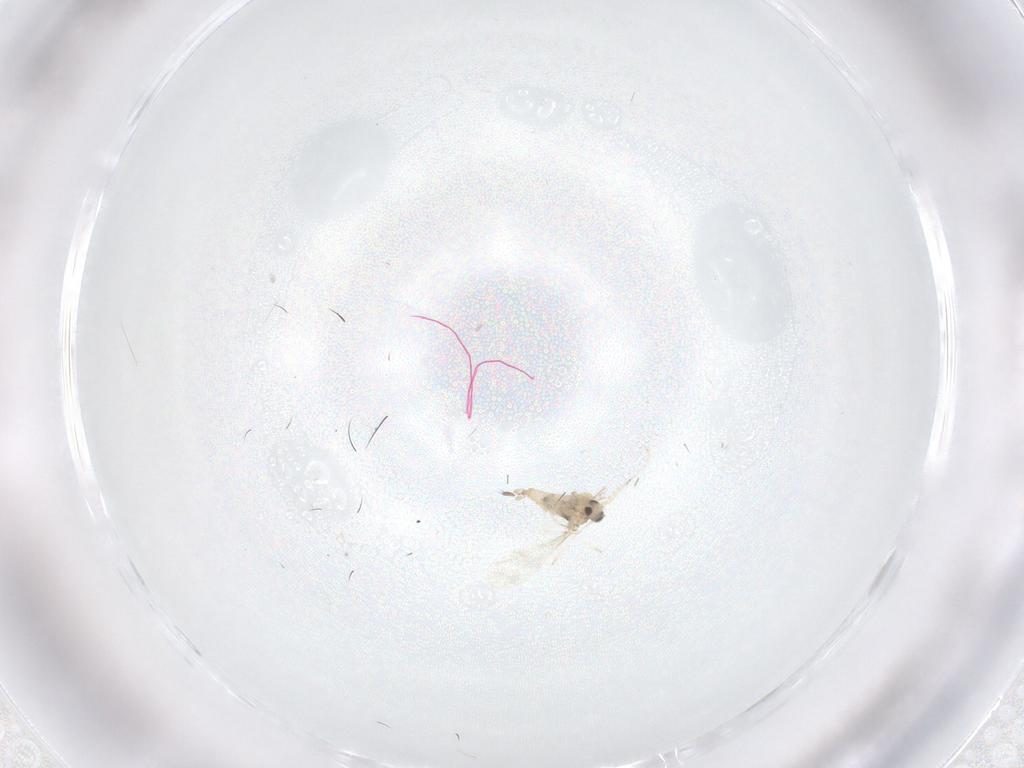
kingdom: Animalia
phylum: Arthropoda
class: Insecta
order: Diptera
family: Cecidomyiidae
